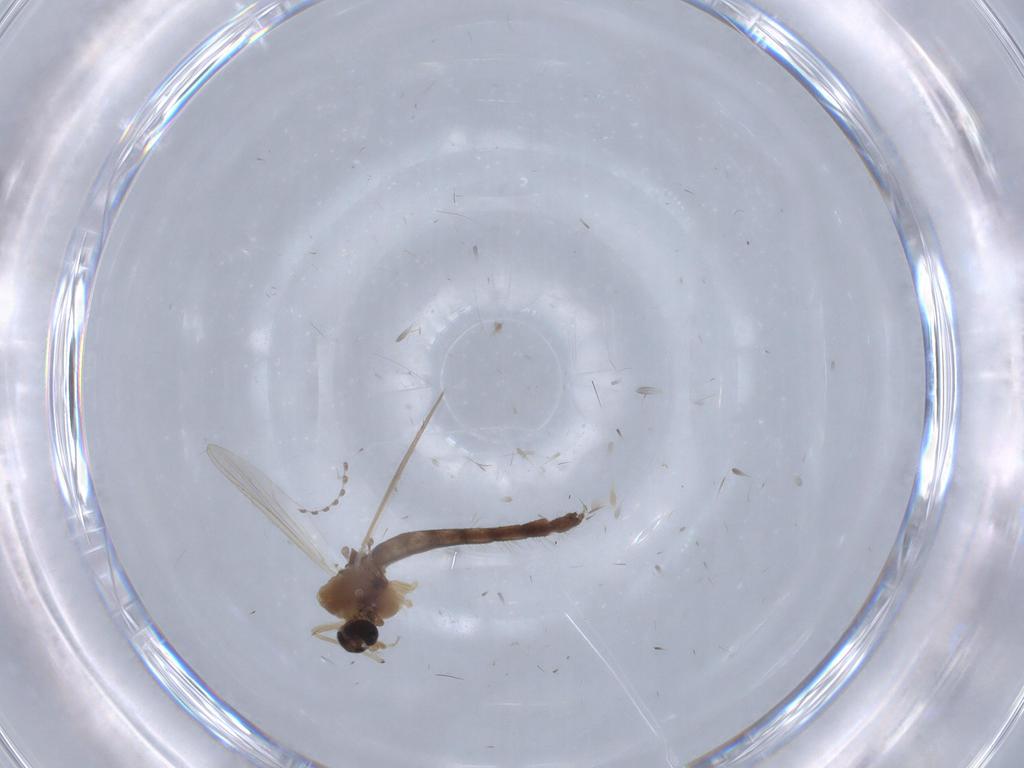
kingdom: Animalia
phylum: Arthropoda
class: Insecta
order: Diptera
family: Chironomidae
